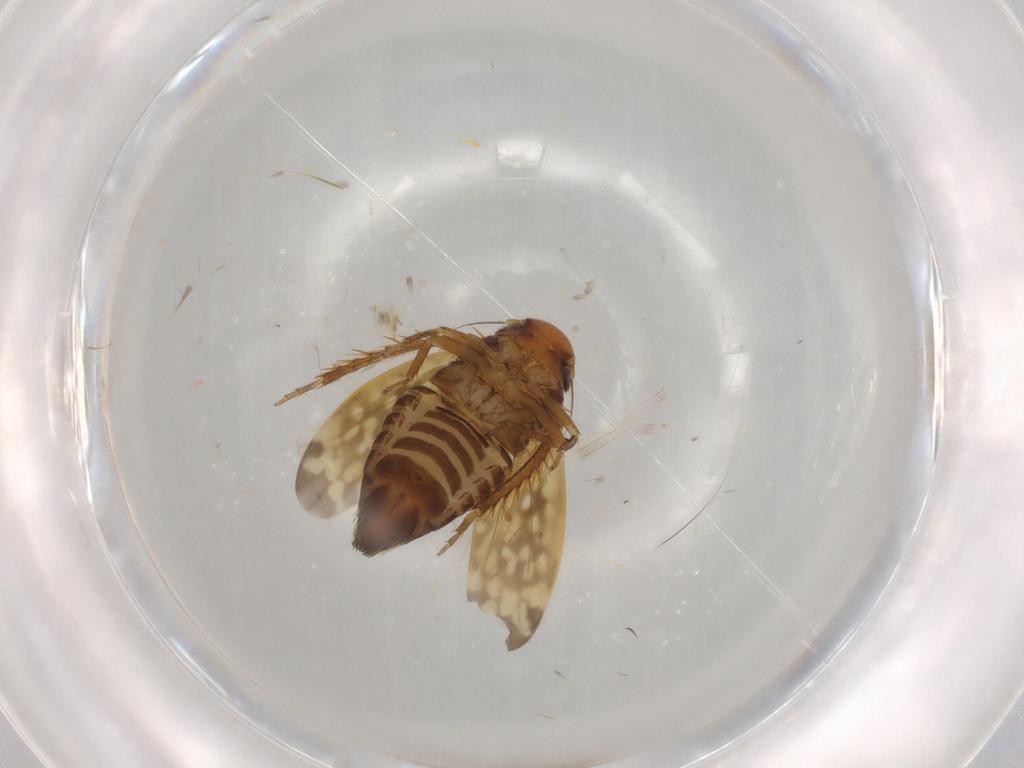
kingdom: Animalia
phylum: Arthropoda
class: Insecta
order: Hemiptera
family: Cicadellidae
